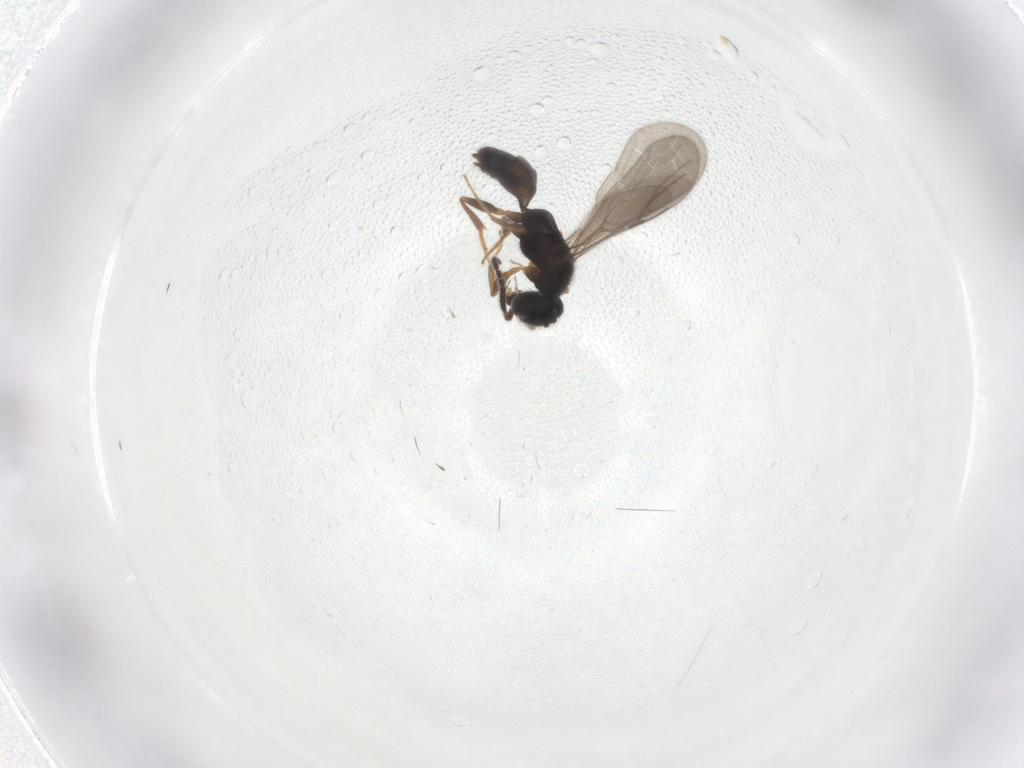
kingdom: Animalia
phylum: Arthropoda
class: Insecta
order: Hymenoptera
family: Bethylidae
